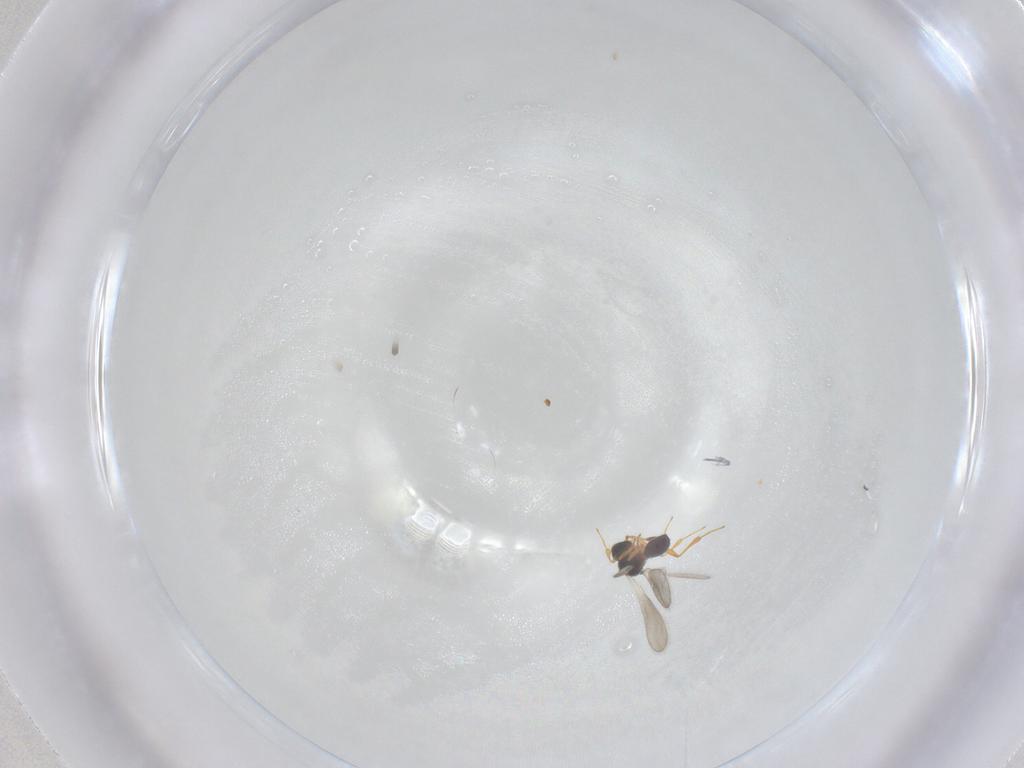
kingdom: Animalia
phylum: Arthropoda
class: Insecta
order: Hymenoptera
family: Platygastridae
